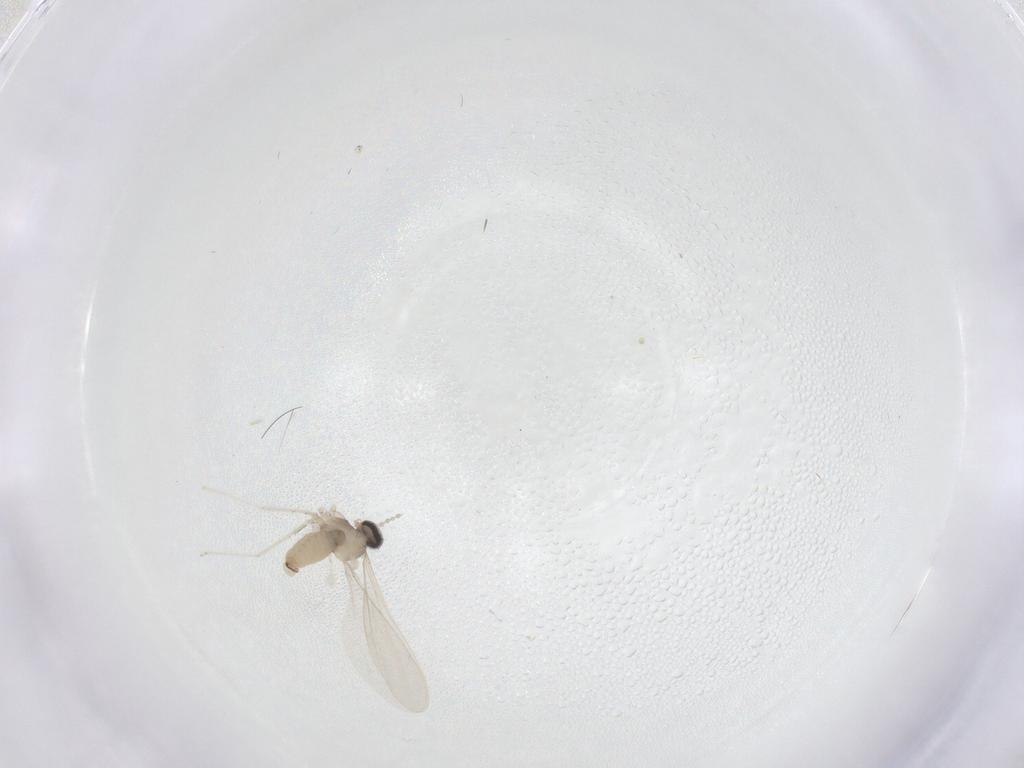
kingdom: Animalia
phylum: Arthropoda
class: Insecta
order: Diptera
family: Cecidomyiidae
